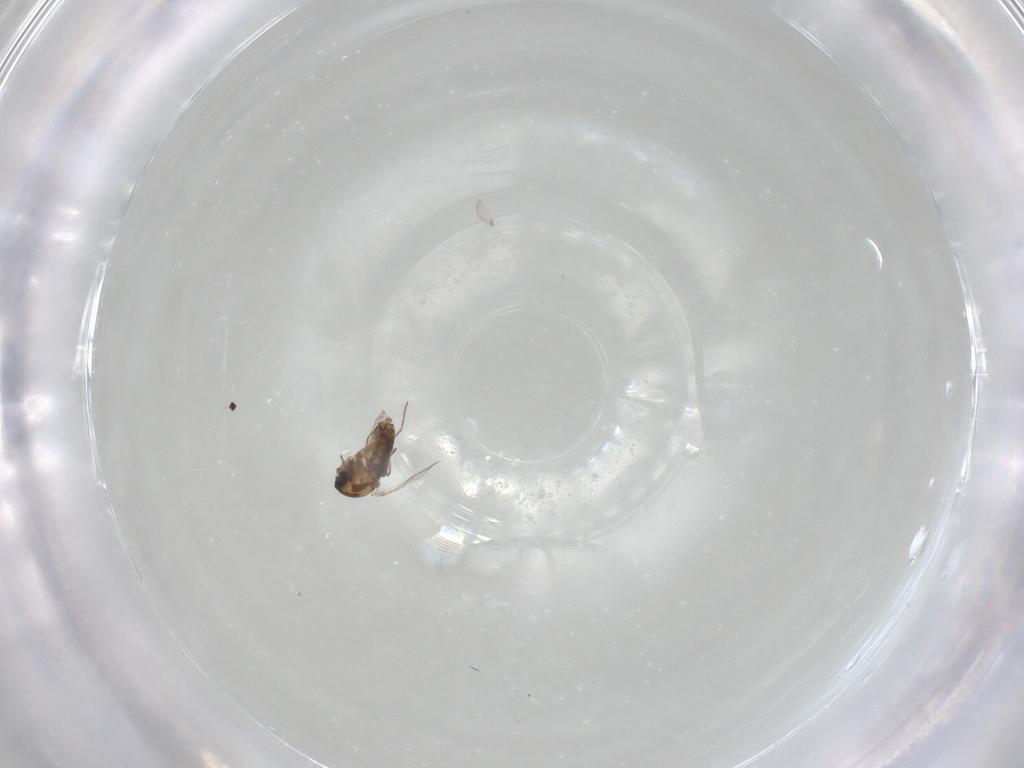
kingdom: Animalia
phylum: Arthropoda
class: Insecta
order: Diptera
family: Chironomidae
